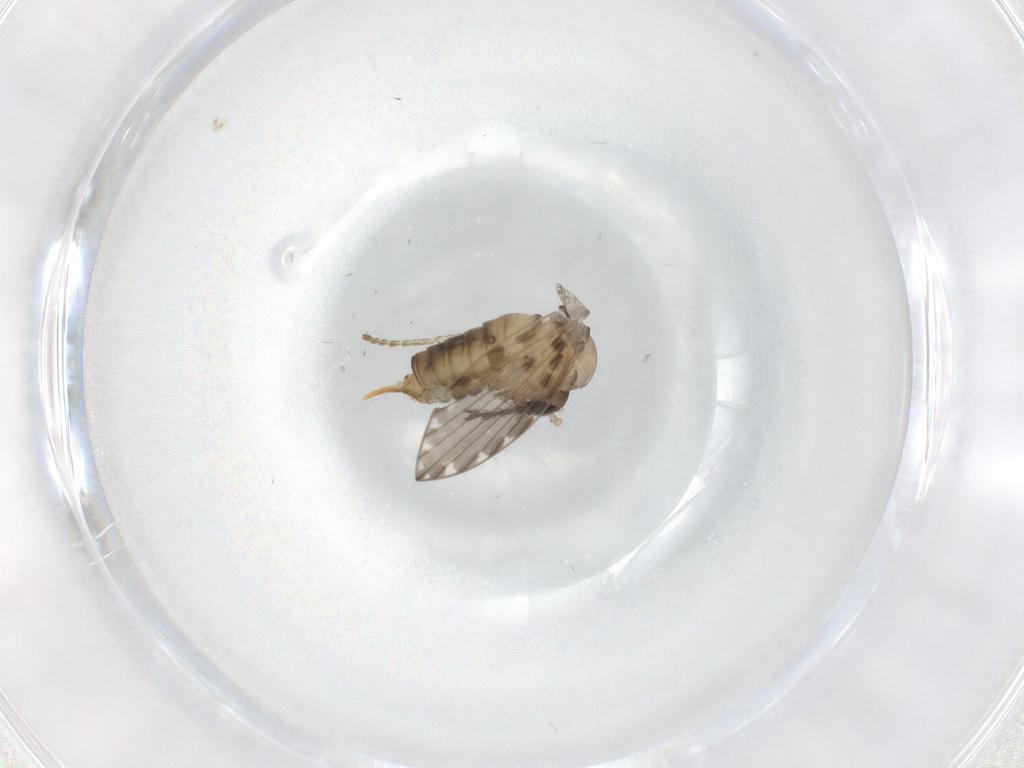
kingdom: Animalia
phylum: Arthropoda
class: Insecta
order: Diptera
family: Psychodidae
